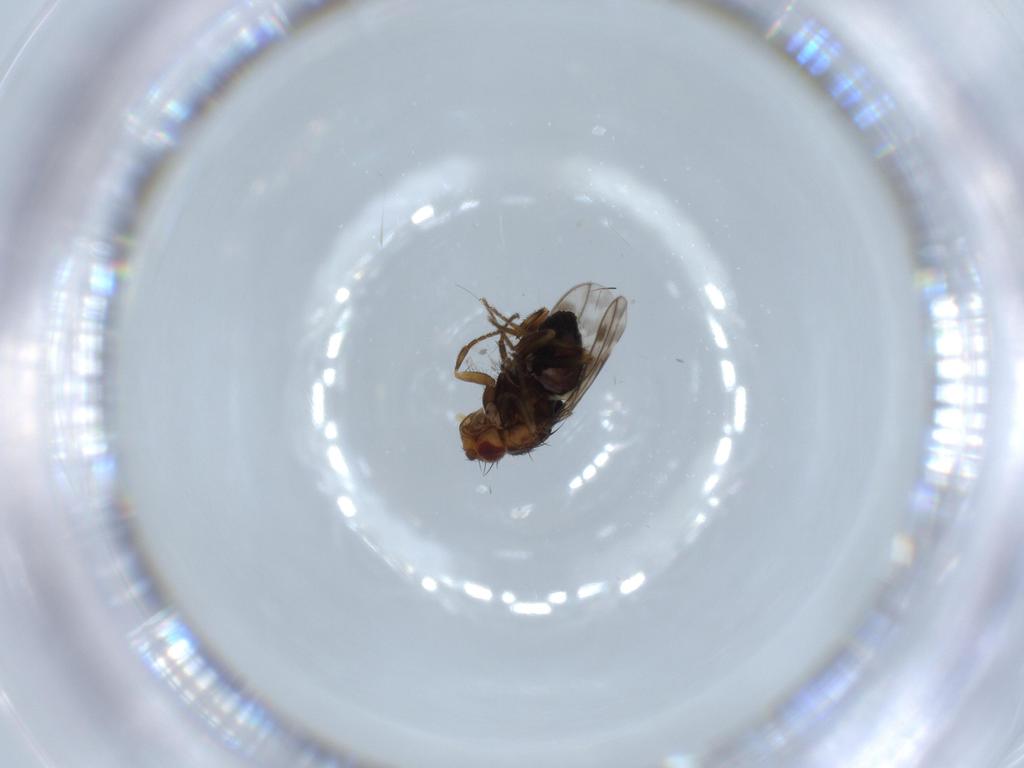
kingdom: Animalia
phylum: Arthropoda
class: Insecta
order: Diptera
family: Sphaeroceridae
